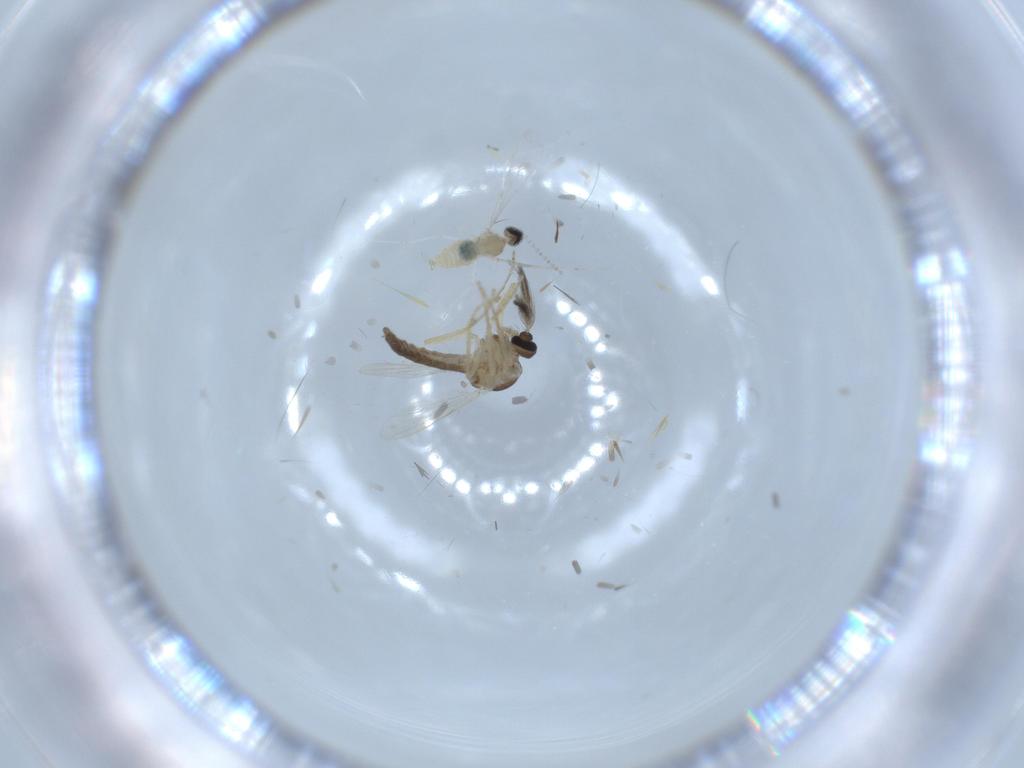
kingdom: Animalia
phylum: Arthropoda
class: Insecta
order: Diptera
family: Ceratopogonidae
